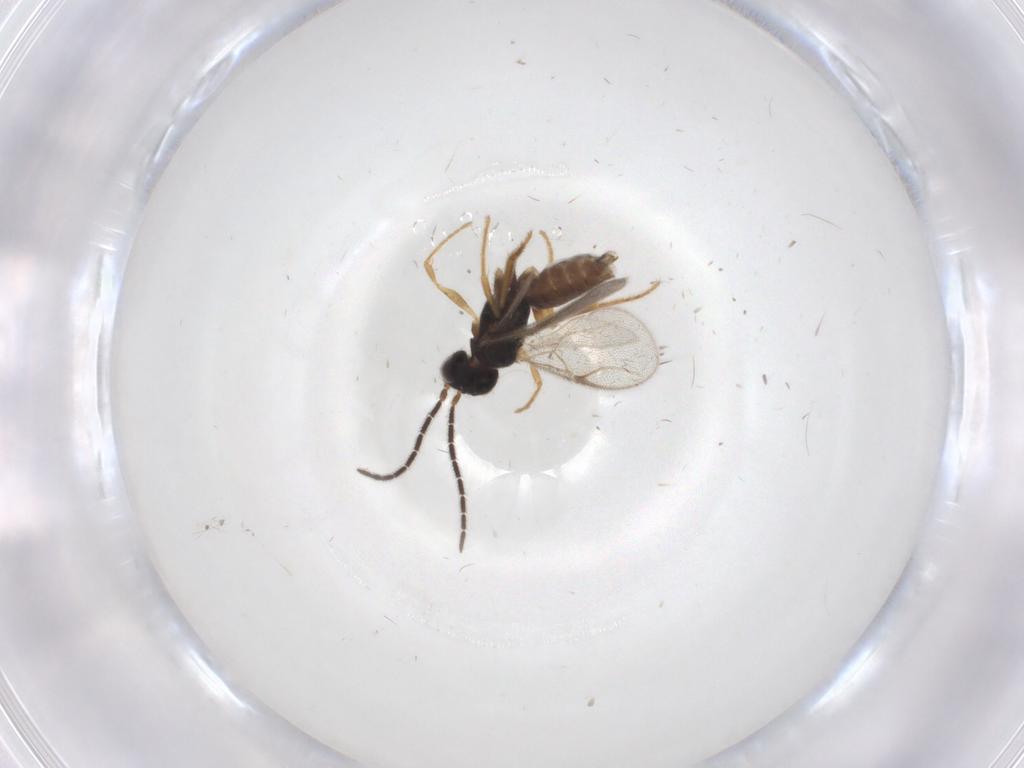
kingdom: Animalia
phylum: Arthropoda
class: Insecta
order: Hymenoptera
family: Dryinidae
